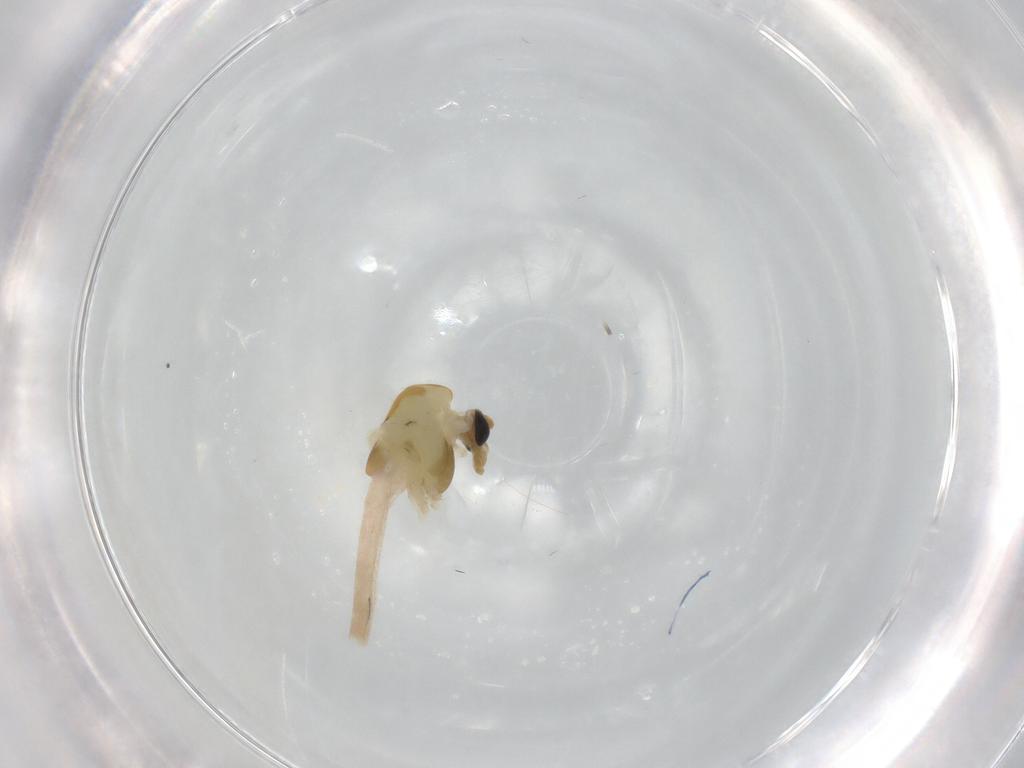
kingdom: Animalia
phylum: Arthropoda
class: Insecta
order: Diptera
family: Chironomidae
